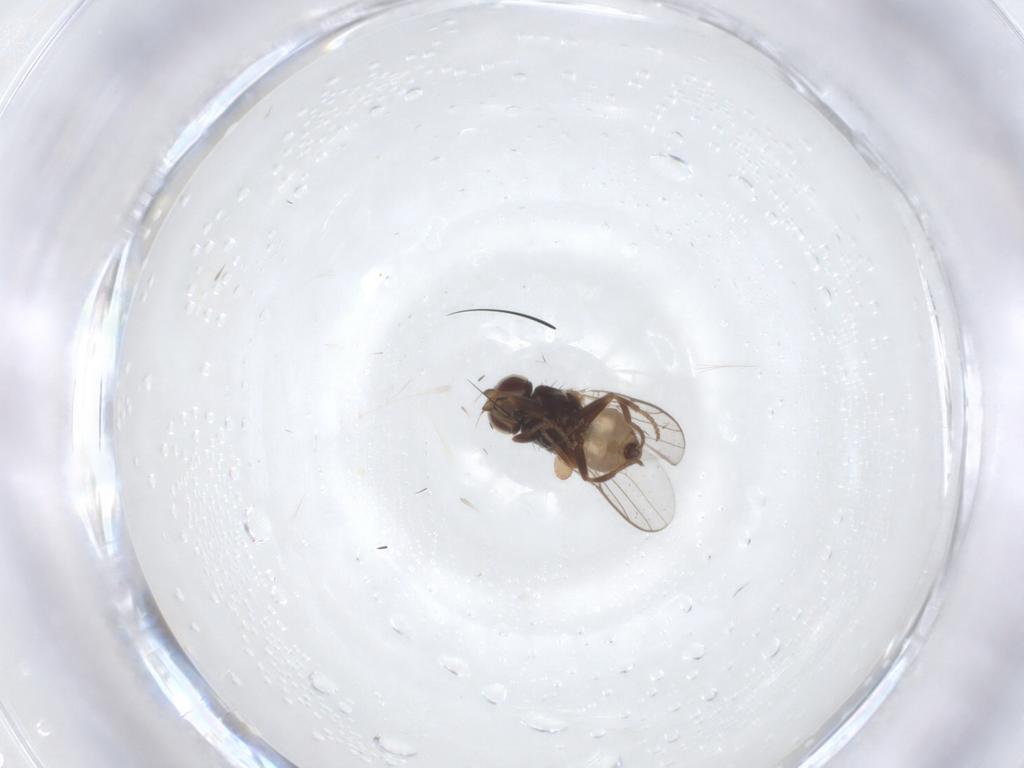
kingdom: Animalia
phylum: Arthropoda
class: Insecta
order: Diptera
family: Chloropidae
